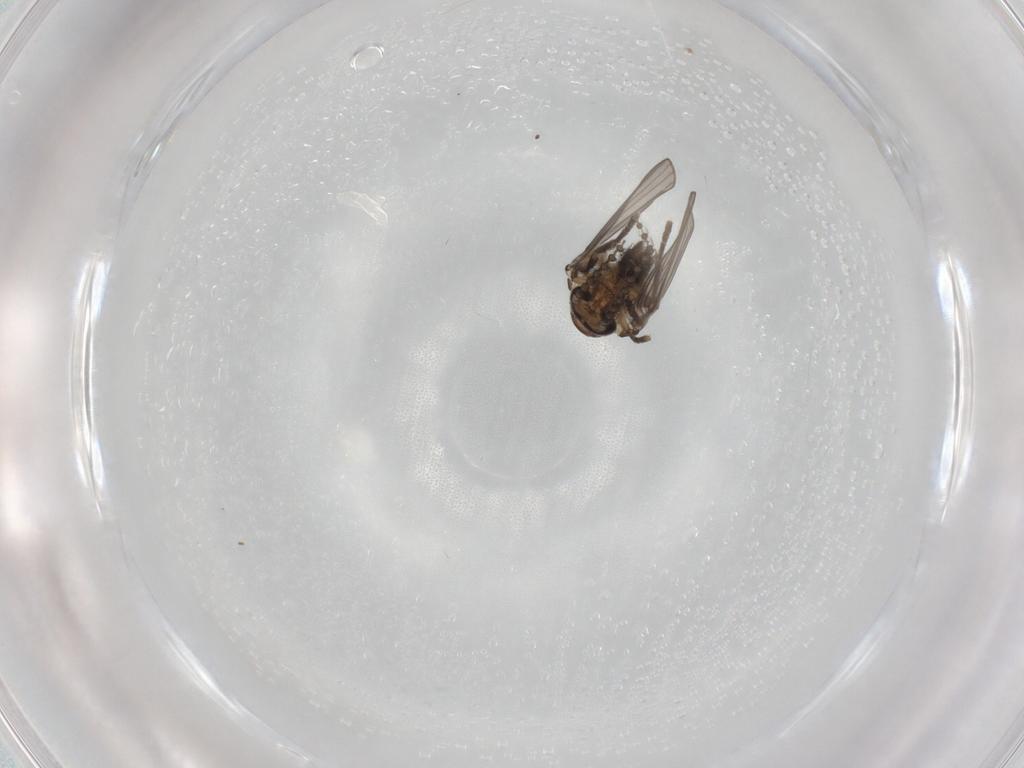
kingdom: Animalia
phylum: Arthropoda
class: Insecta
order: Diptera
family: Psychodidae
